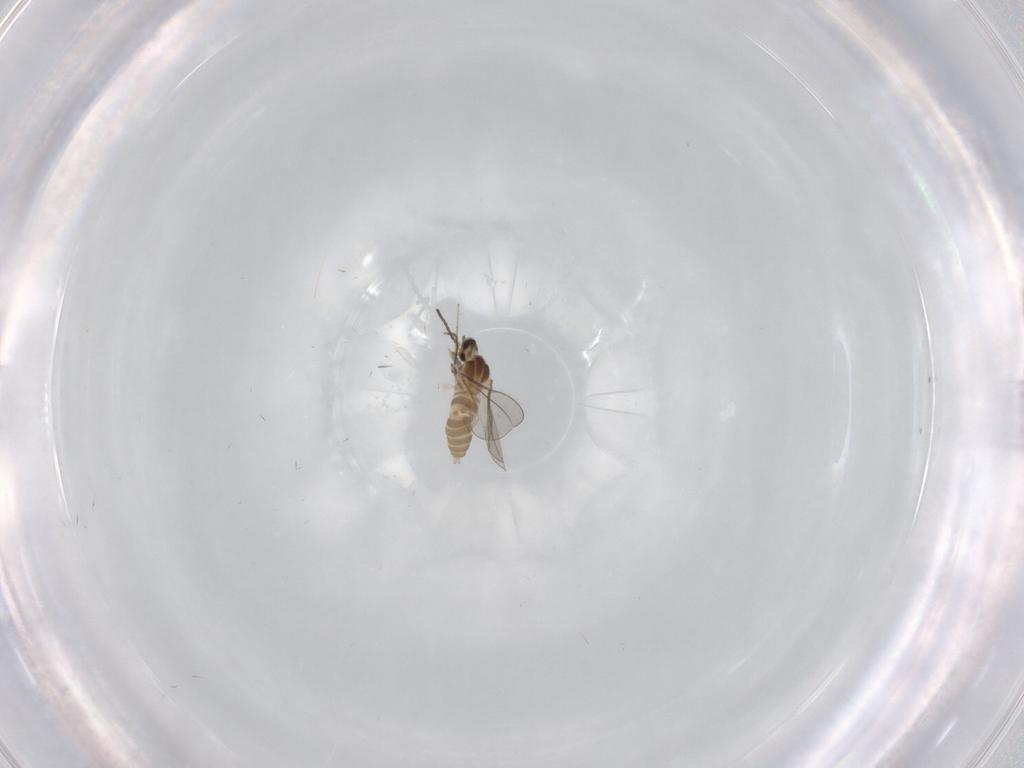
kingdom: Animalia
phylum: Arthropoda
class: Insecta
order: Diptera
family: Cecidomyiidae
